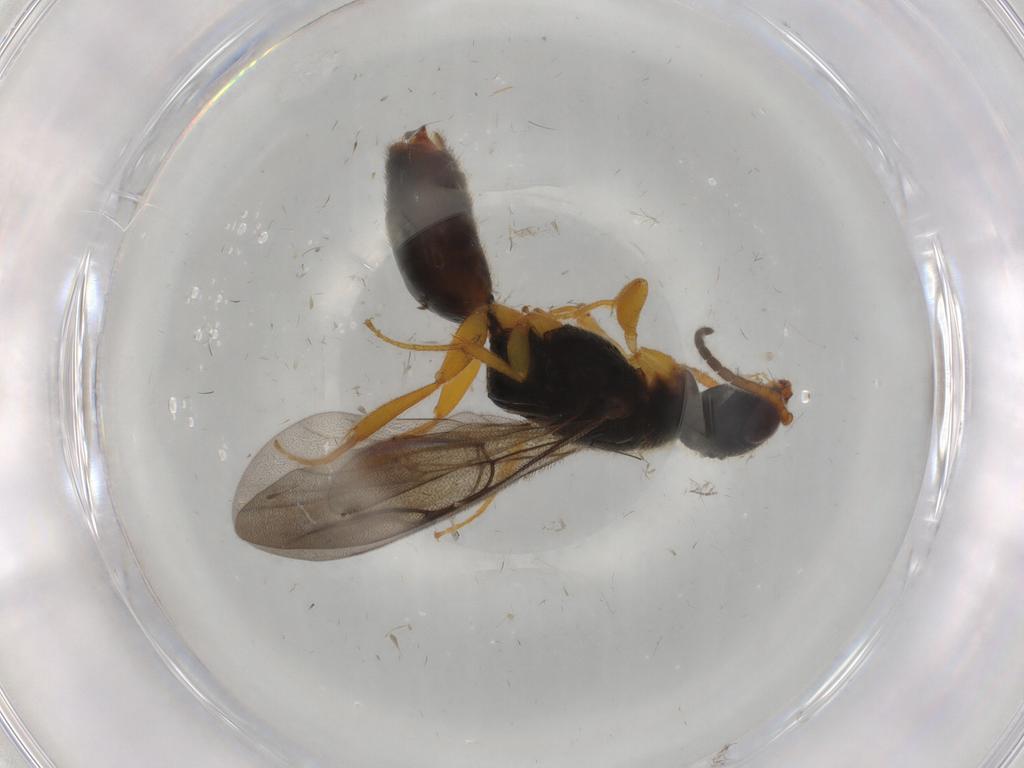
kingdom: Animalia
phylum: Arthropoda
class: Insecta
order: Hymenoptera
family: Bethylidae
